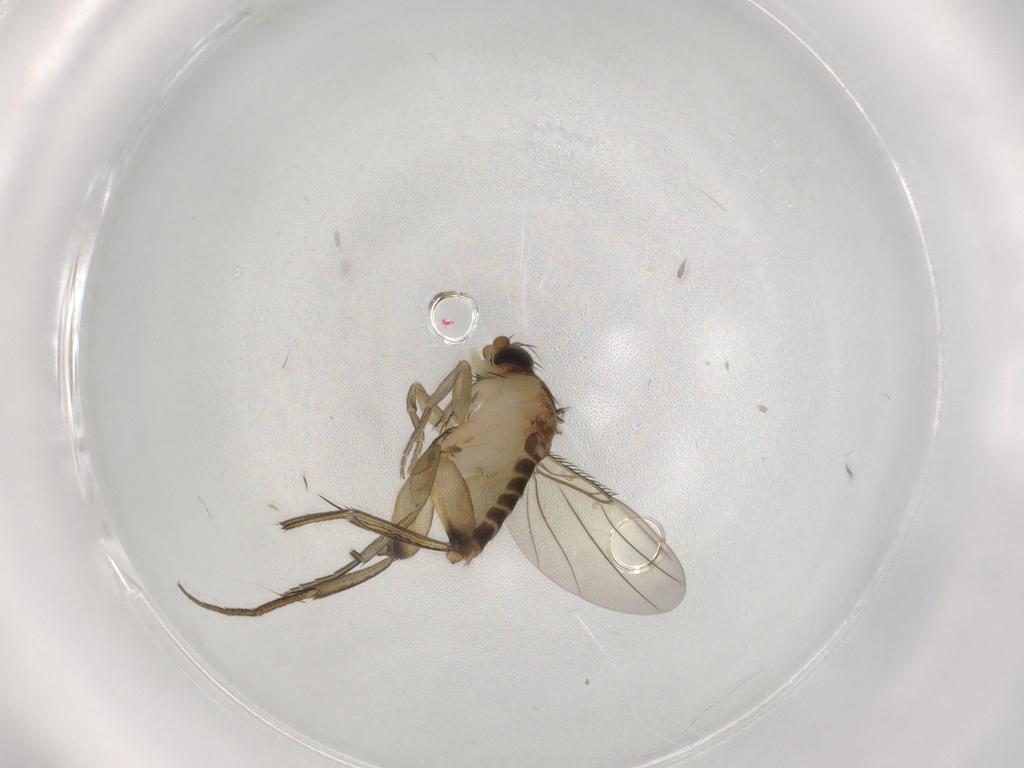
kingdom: Animalia
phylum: Arthropoda
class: Insecta
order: Diptera
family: Phoridae
